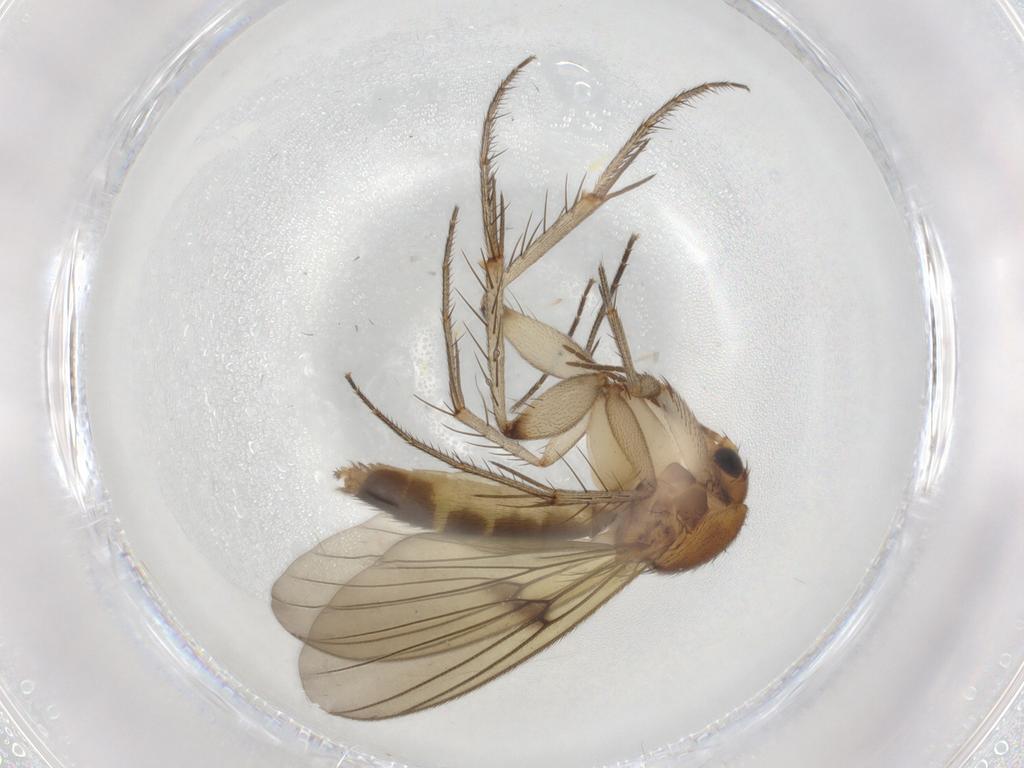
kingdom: Animalia
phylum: Arthropoda
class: Insecta
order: Diptera
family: Mycetophilidae
